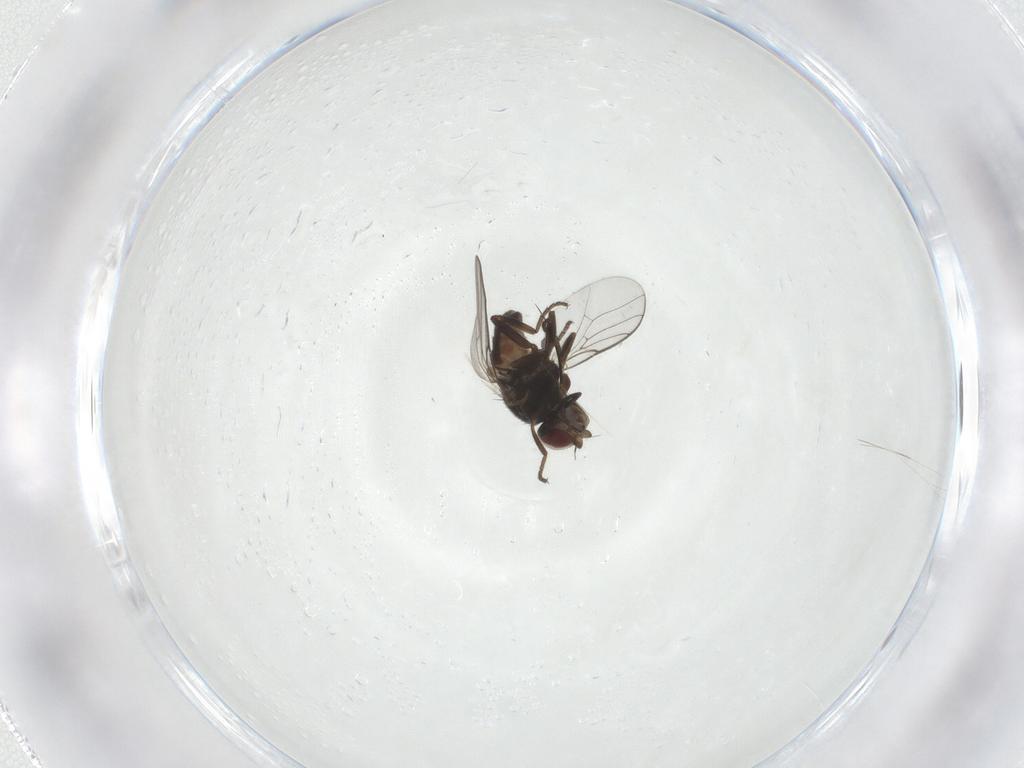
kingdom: Animalia
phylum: Arthropoda
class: Insecta
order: Diptera
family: Chloropidae
